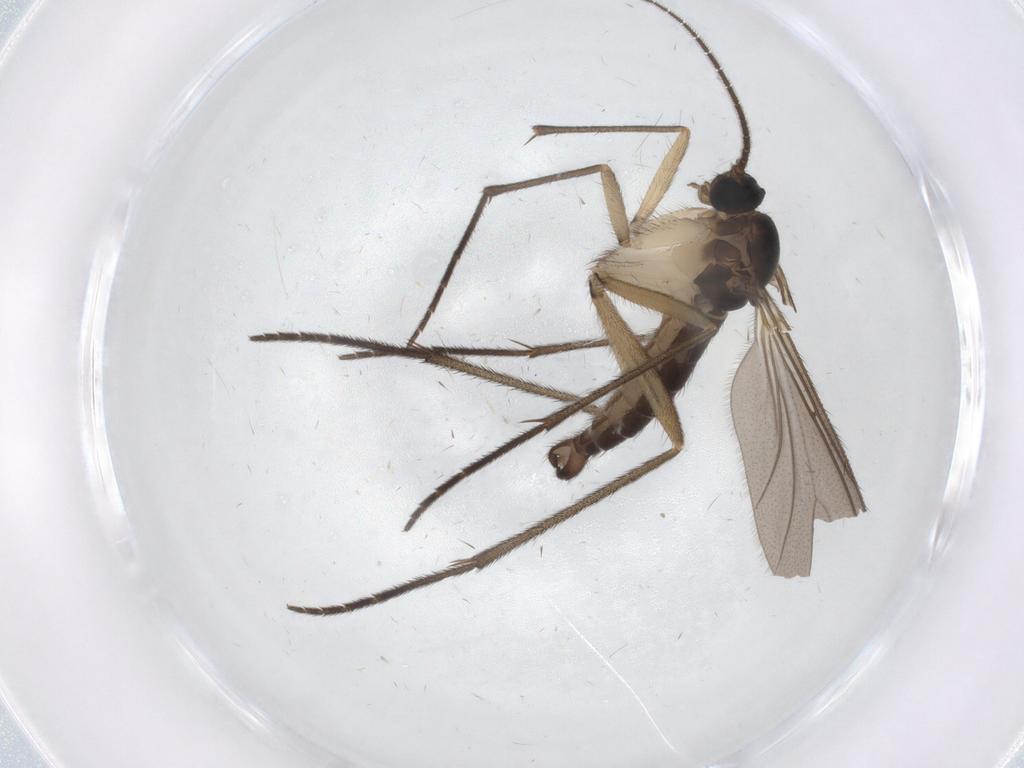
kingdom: Animalia
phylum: Arthropoda
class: Insecta
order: Diptera
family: Sciaridae
